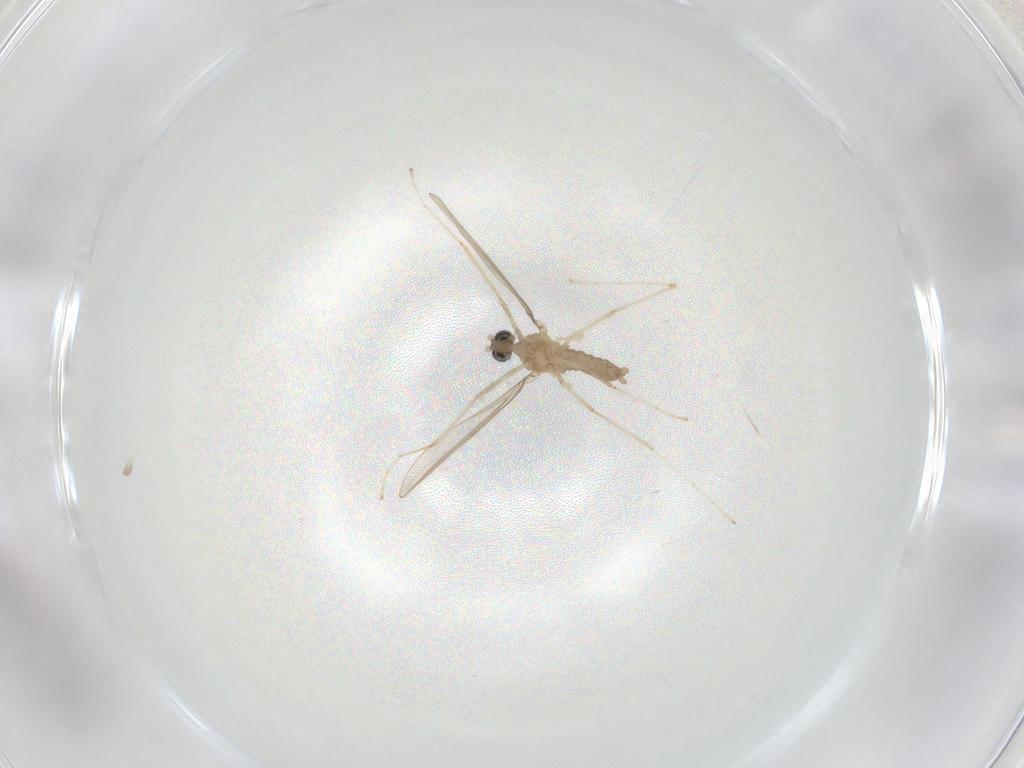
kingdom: Animalia
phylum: Arthropoda
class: Insecta
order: Diptera
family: Cecidomyiidae
